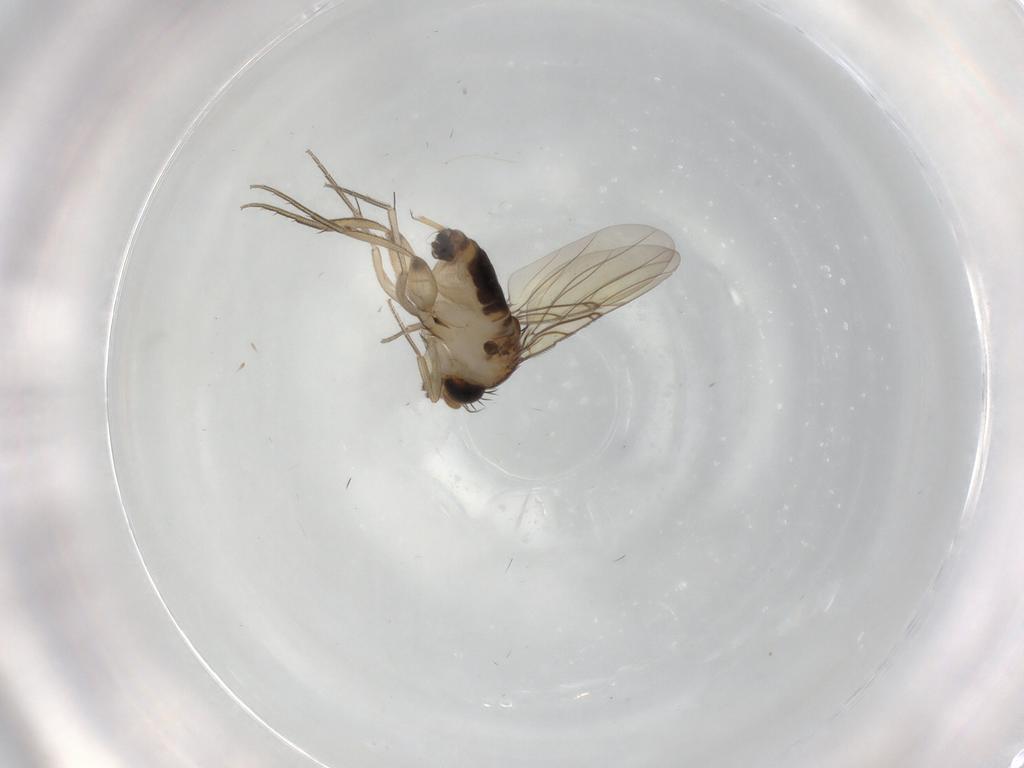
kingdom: Animalia
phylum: Arthropoda
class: Insecta
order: Diptera
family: Phoridae
